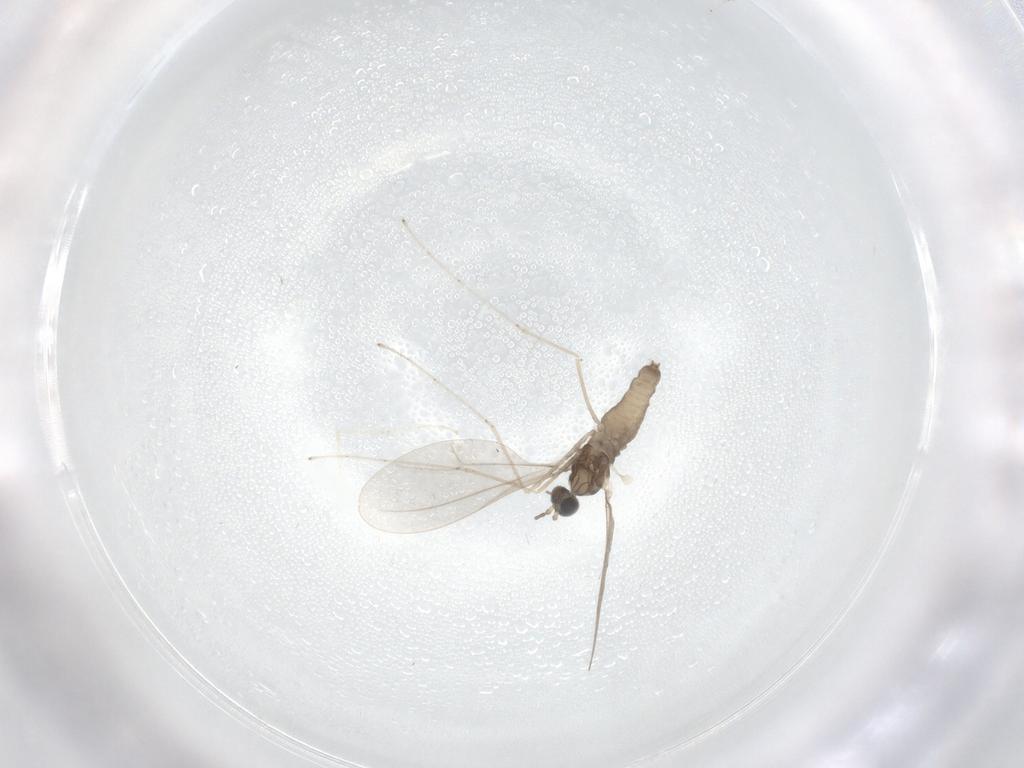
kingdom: Animalia
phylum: Arthropoda
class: Insecta
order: Diptera
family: Cecidomyiidae
